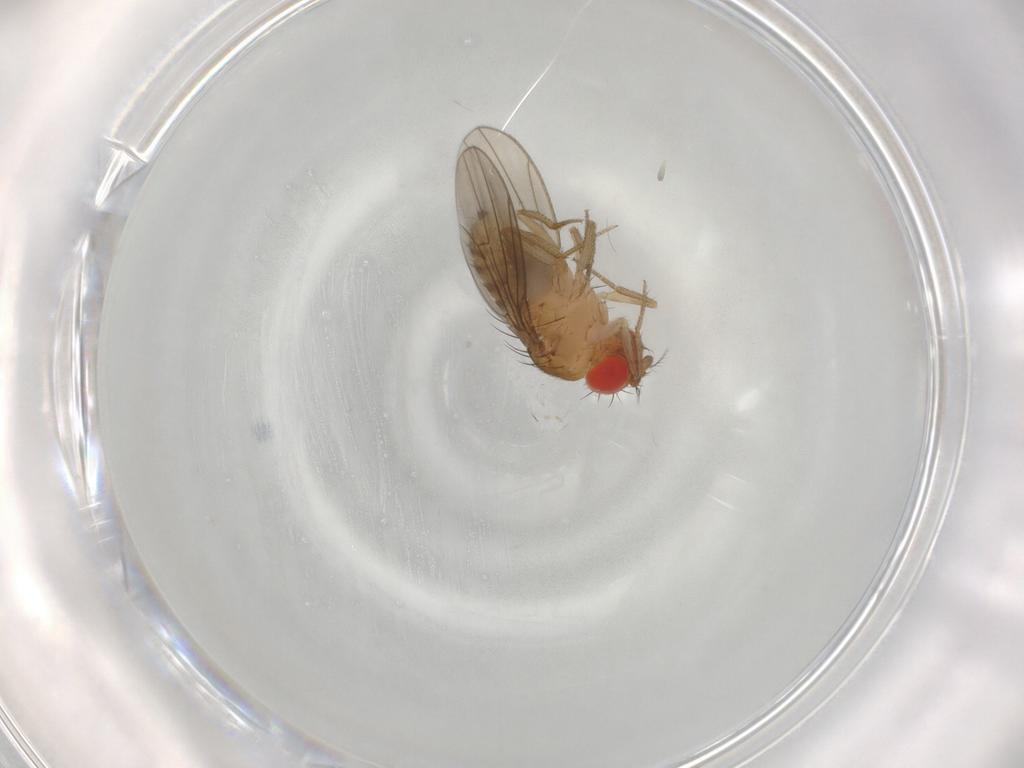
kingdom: Animalia
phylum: Arthropoda
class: Insecta
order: Diptera
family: Drosophilidae
